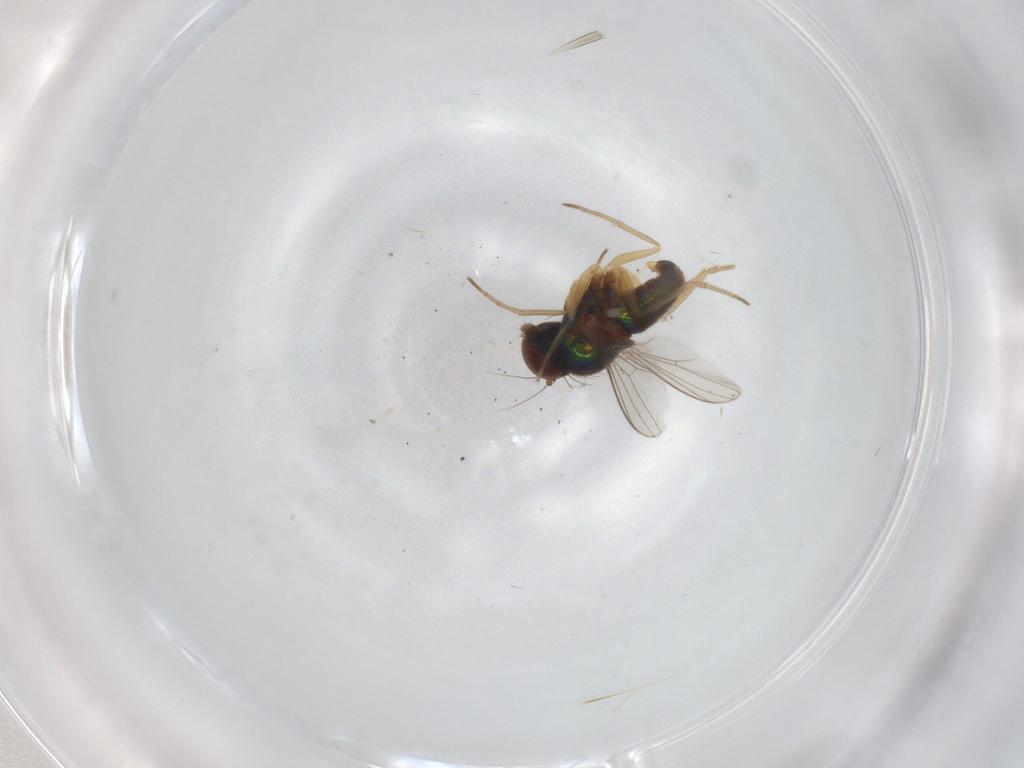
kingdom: Animalia
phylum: Arthropoda
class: Insecta
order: Diptera
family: Dolichopodidae
